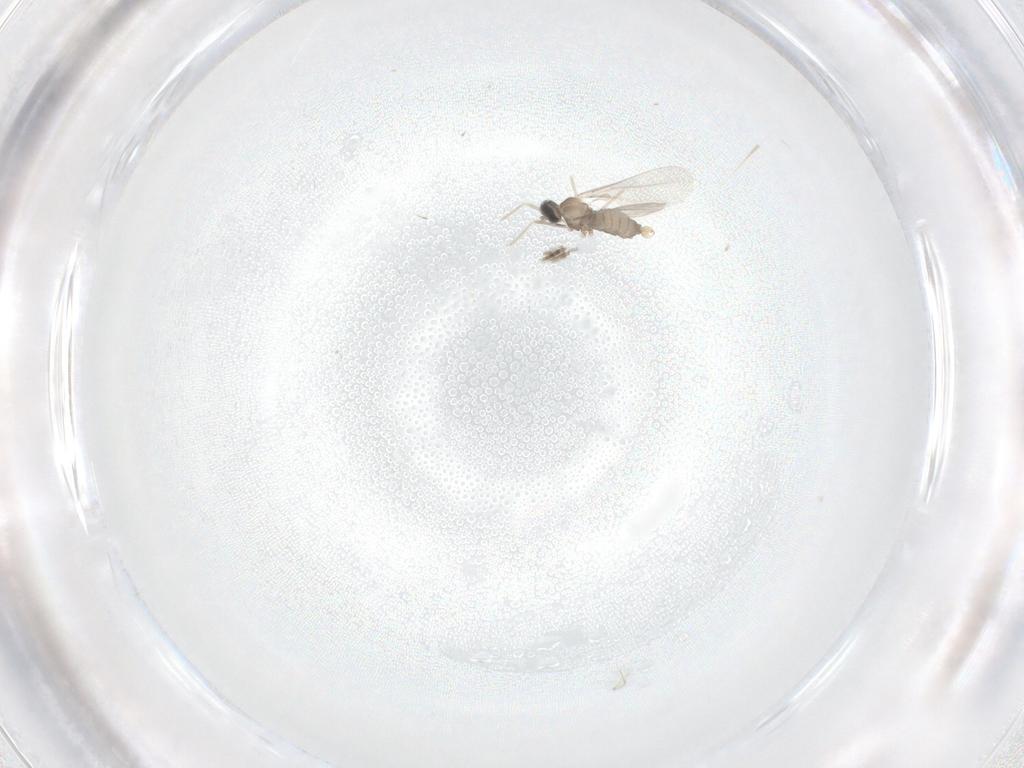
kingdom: Animalia
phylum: Arthropoda
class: Insecta
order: Diptera
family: Cecidomyiidae
